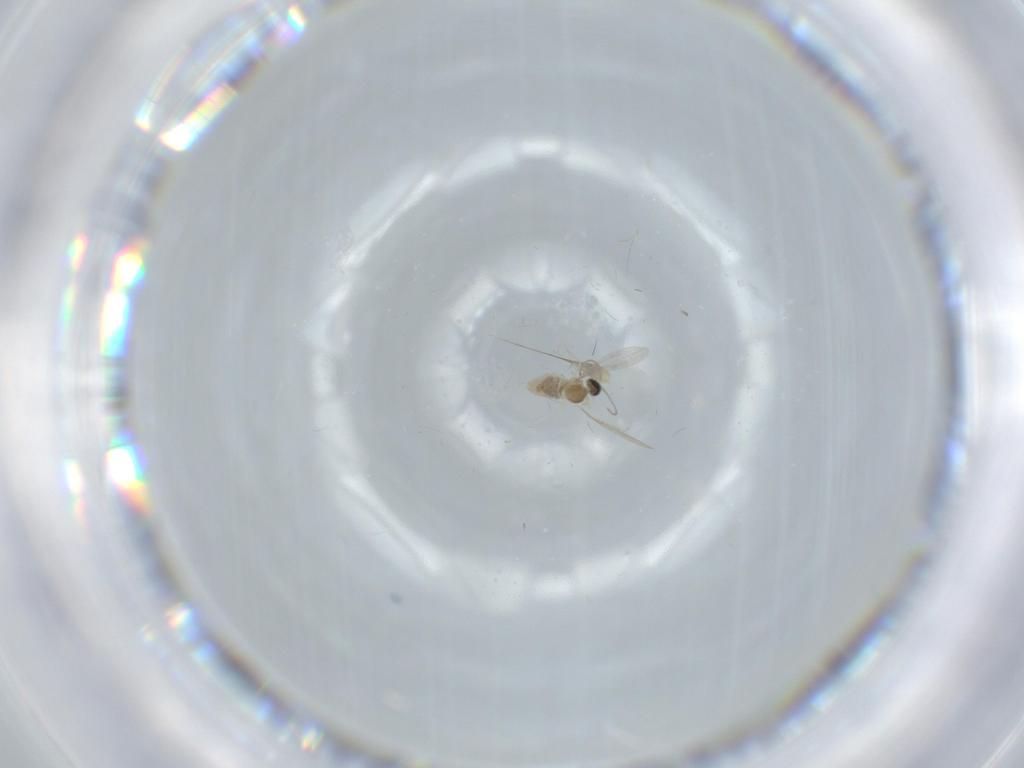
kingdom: Animalia
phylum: Arthropoda
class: Insecta
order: Diptera
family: Cecidomyiidae
